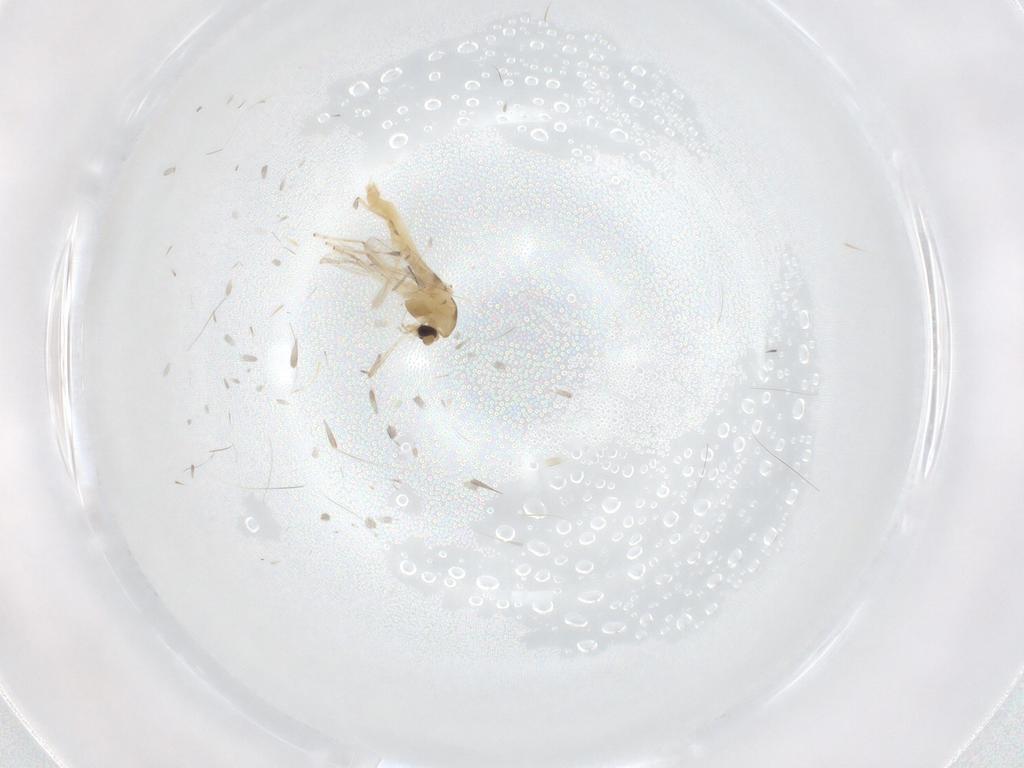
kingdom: Animalia
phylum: Arthropoda
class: Insecta
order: Diptera
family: Chironomidae
